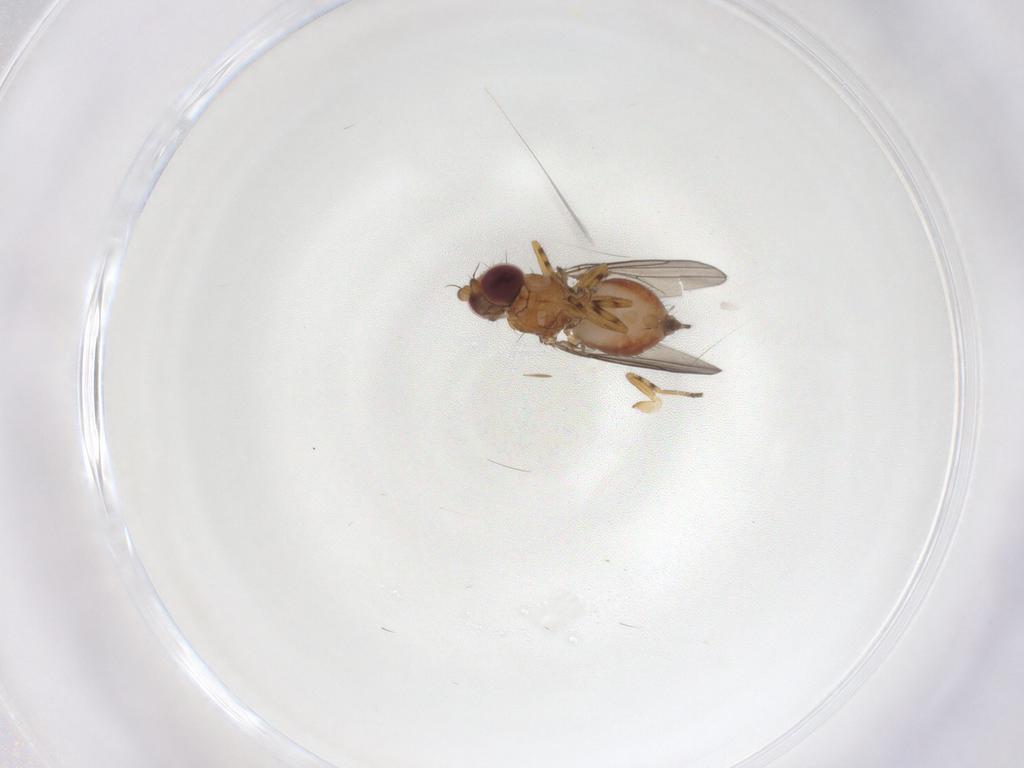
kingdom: Animalia
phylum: Arthropoda
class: Insecta
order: Diptera
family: Chloropidae
